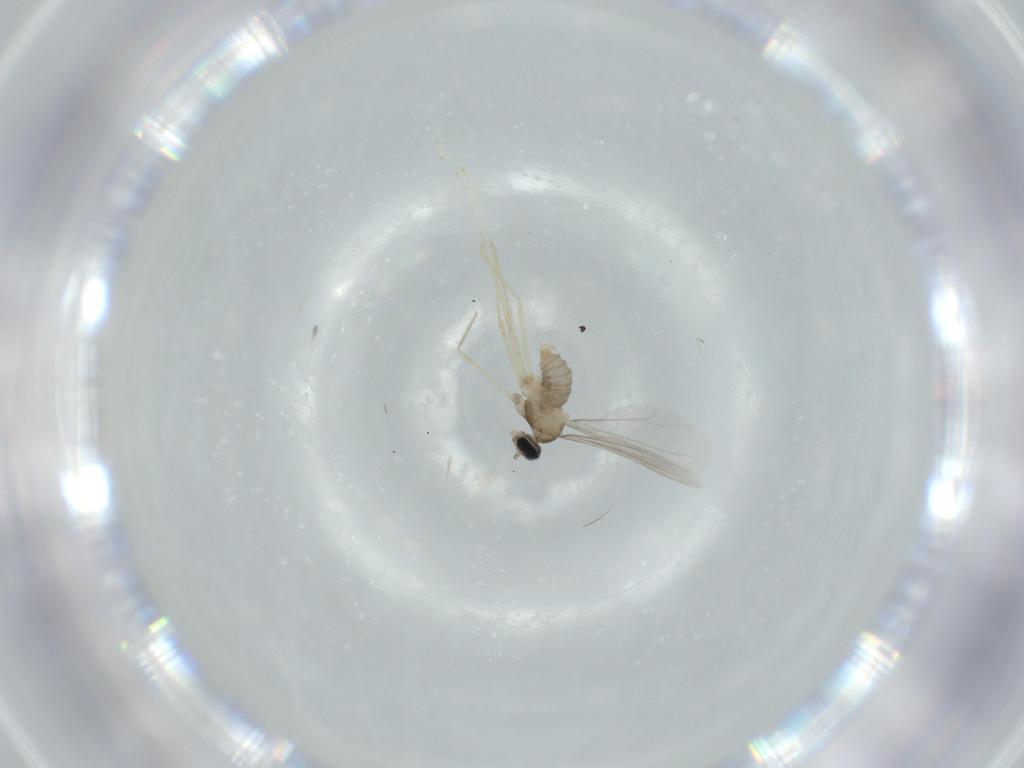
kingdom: Animalia
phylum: Arthropoda
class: Insecta
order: Diptera
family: Cecidomyiidae
